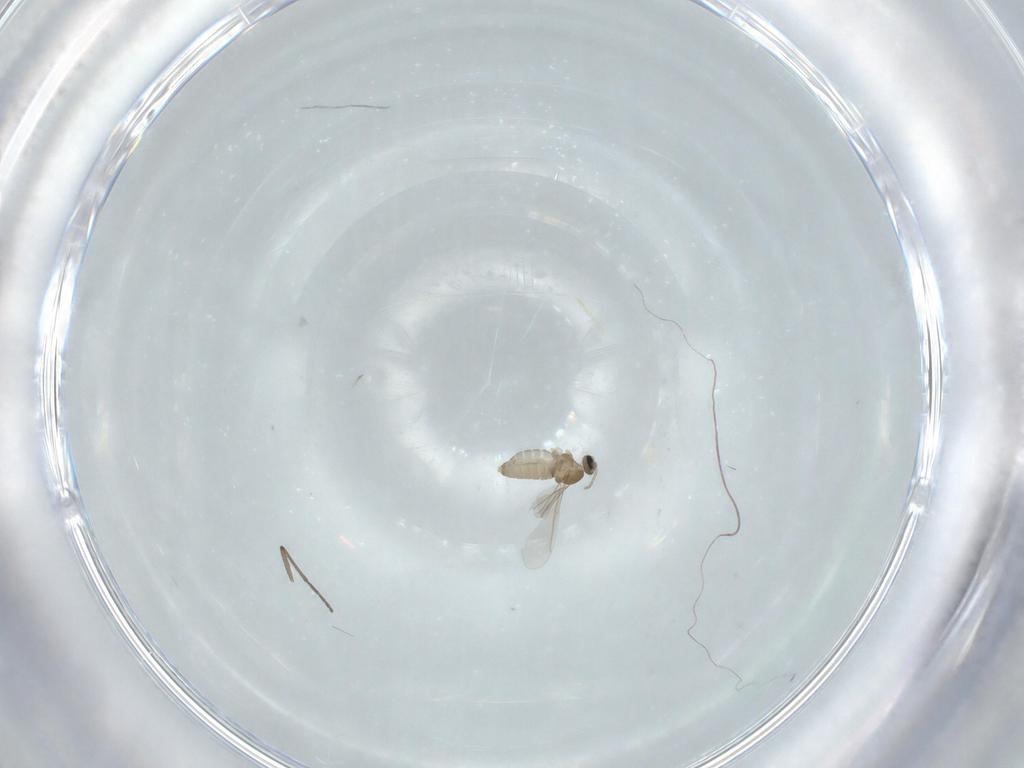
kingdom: Animalia
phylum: Arthropoda
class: Insecta
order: Diptera
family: Cecidomyiidae
